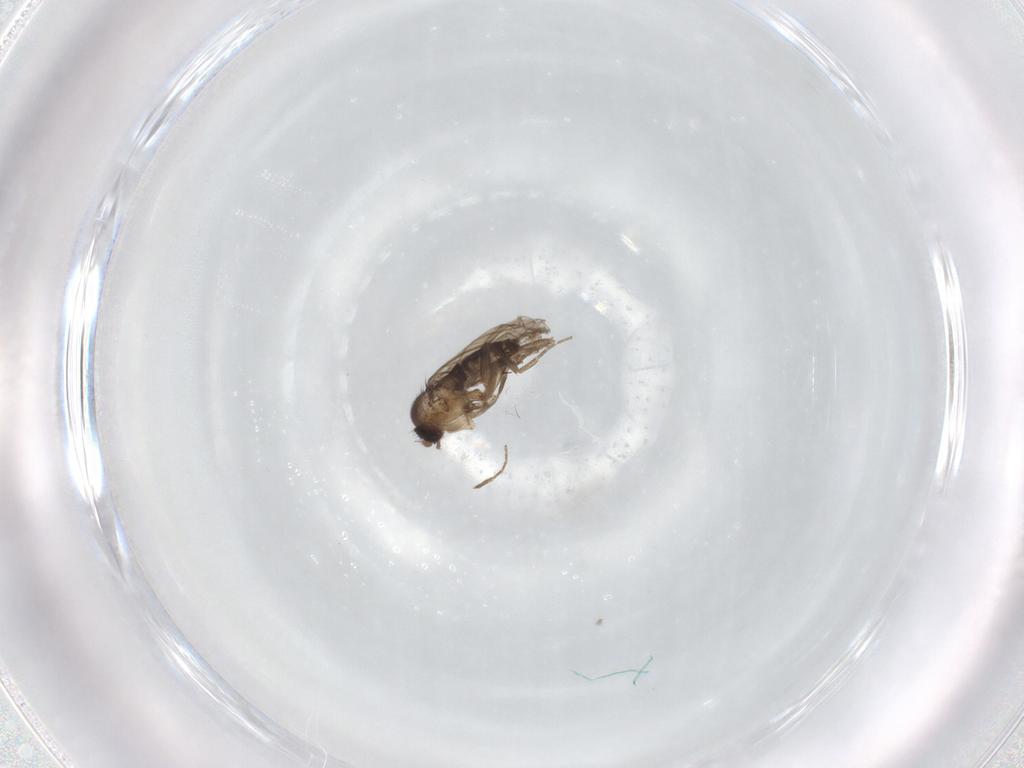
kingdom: Animalia
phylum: Arthropoda
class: Insecta
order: Diptera
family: Phoridae
